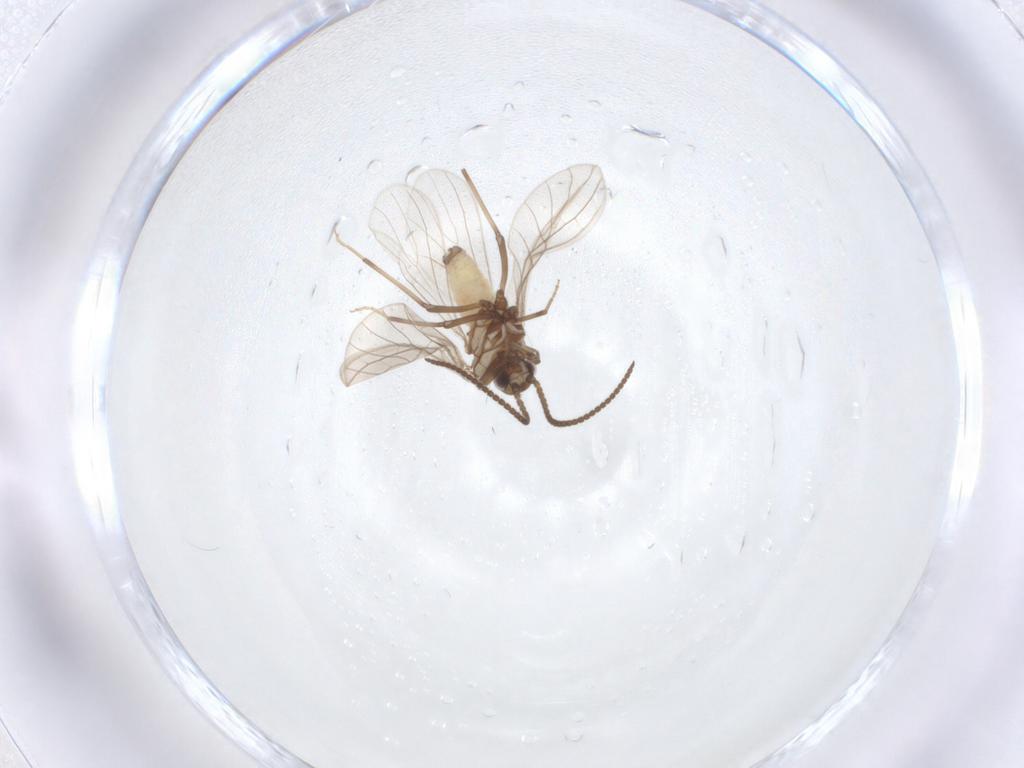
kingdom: Animalia
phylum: Arthropoda
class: Insecta
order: Neuroptera
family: Coniopterygidae
